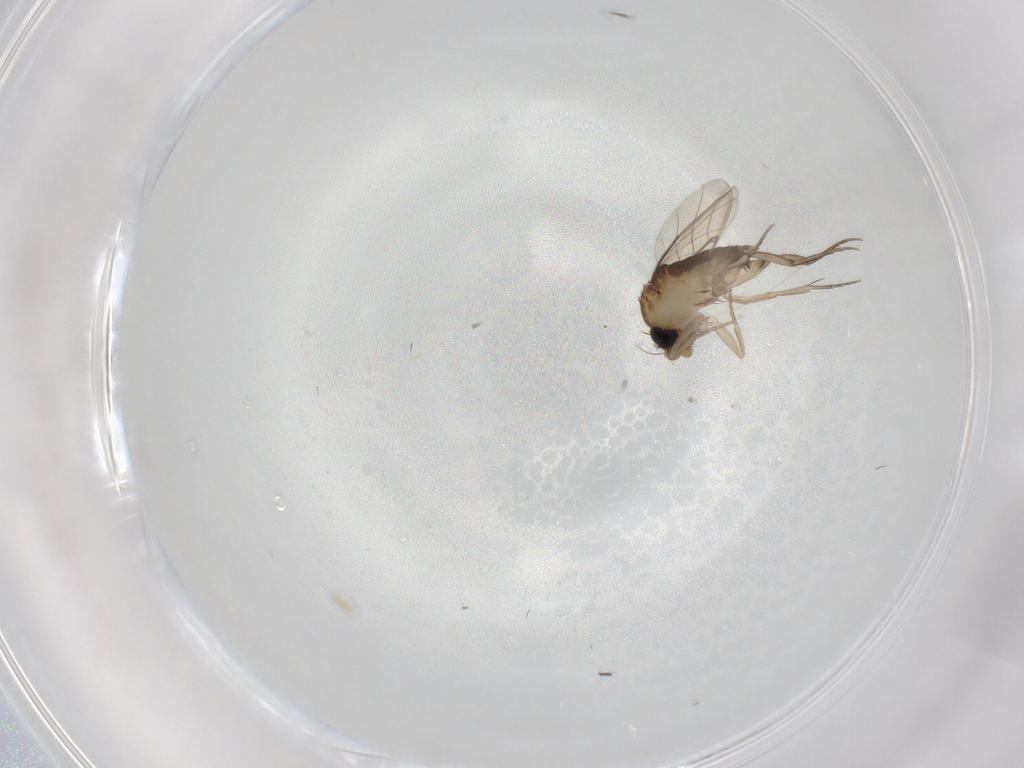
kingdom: Animalia
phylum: Arthropoda
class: Insecta
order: Diptera
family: Phoridae
